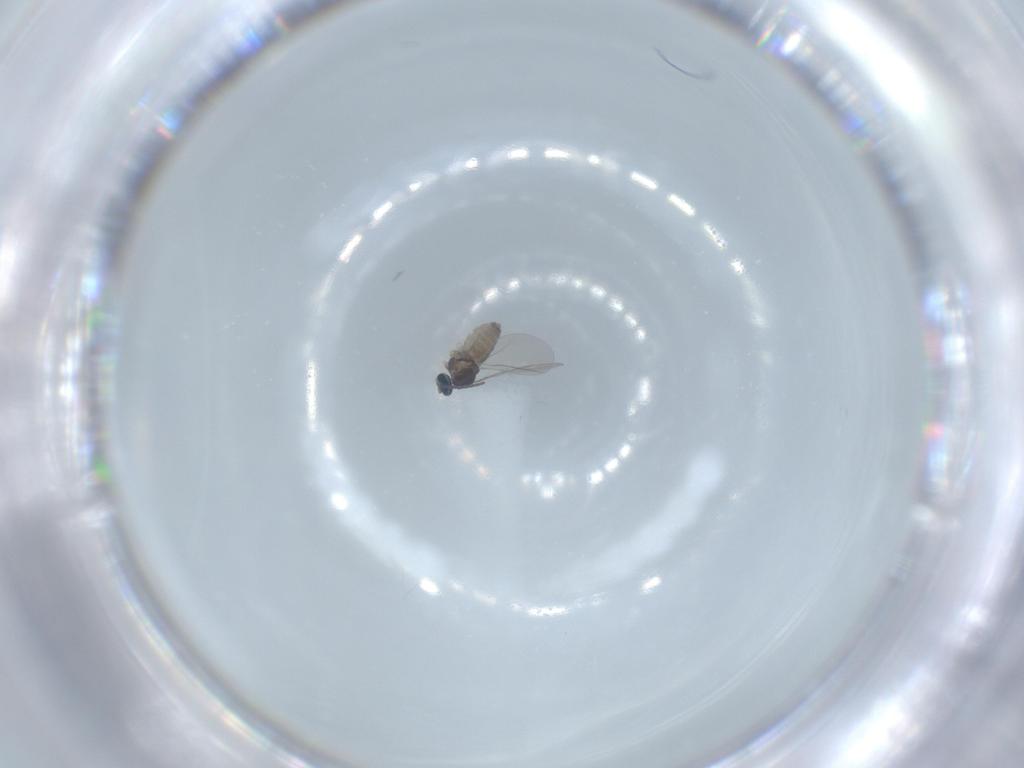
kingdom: Animalia
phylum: Arthropoda
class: Insecta
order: Diptera
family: Phoridae
